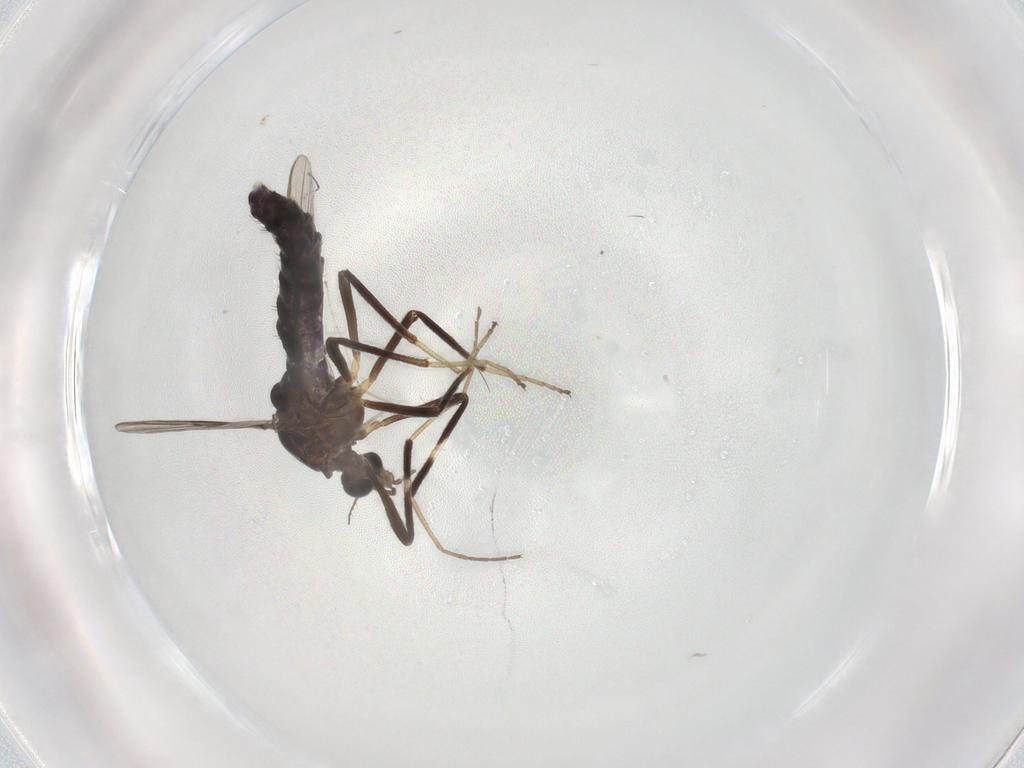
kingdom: Animalia
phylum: Arthropoda
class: Insecta
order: Diptera
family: Chironomidae
